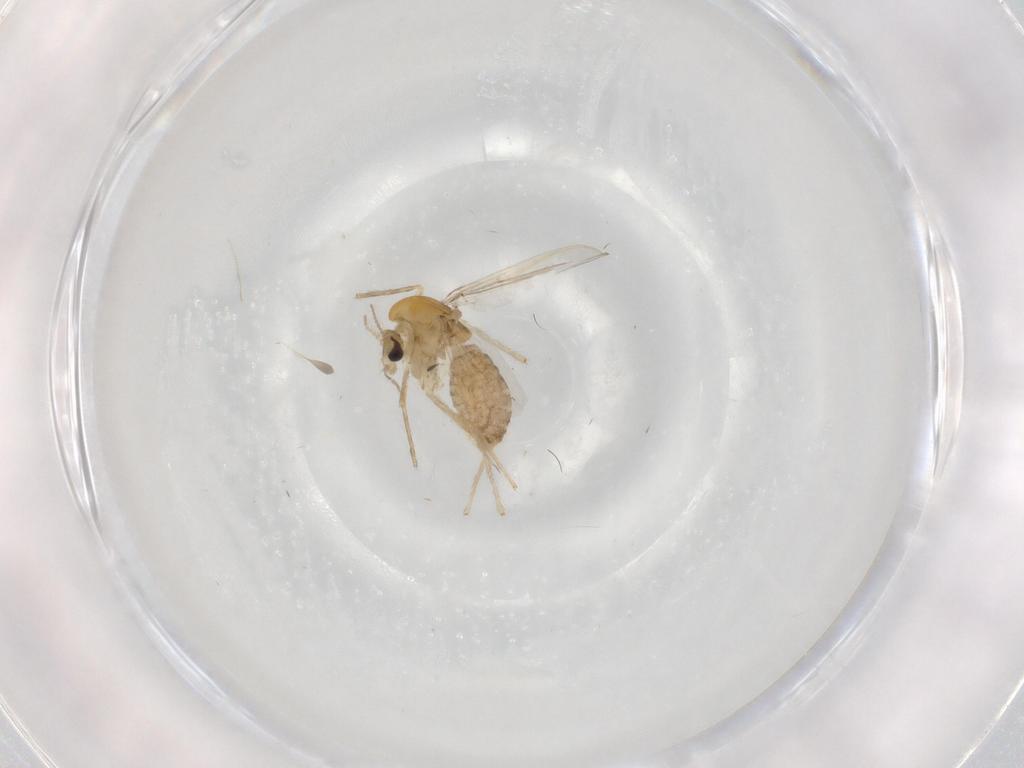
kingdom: Animalia
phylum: Arthropoda
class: Insecta
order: Diptera
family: Chironomidae
